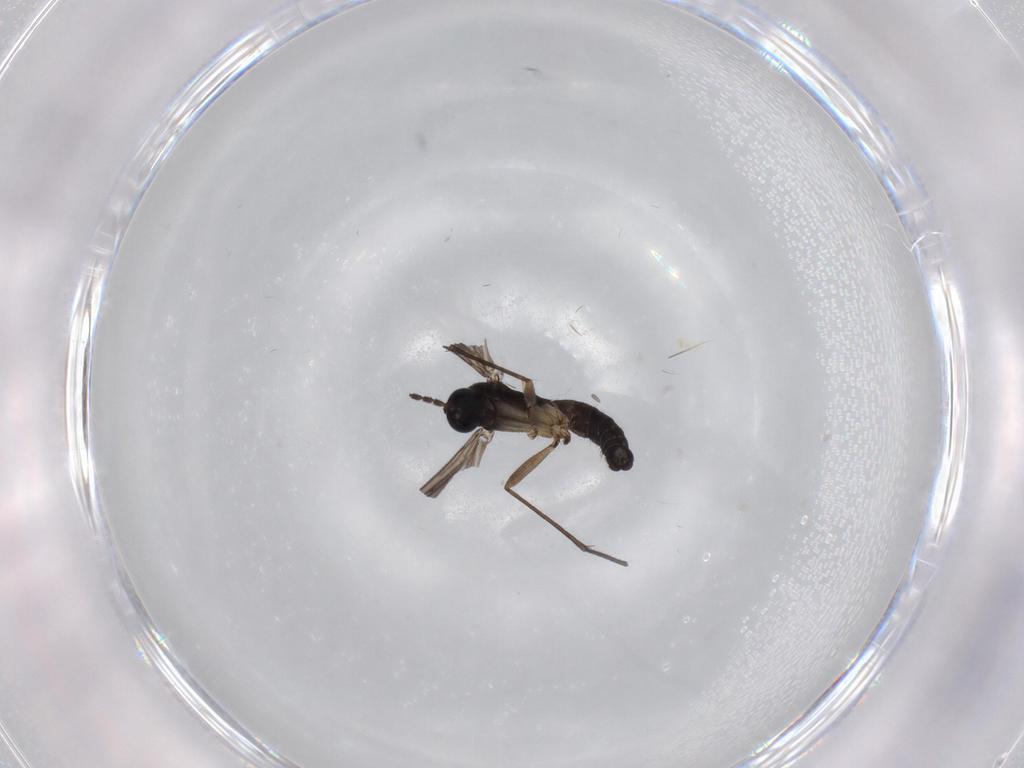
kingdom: Animalia
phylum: Arthropoda
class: Insecta
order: Diptera
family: Sciaridae
